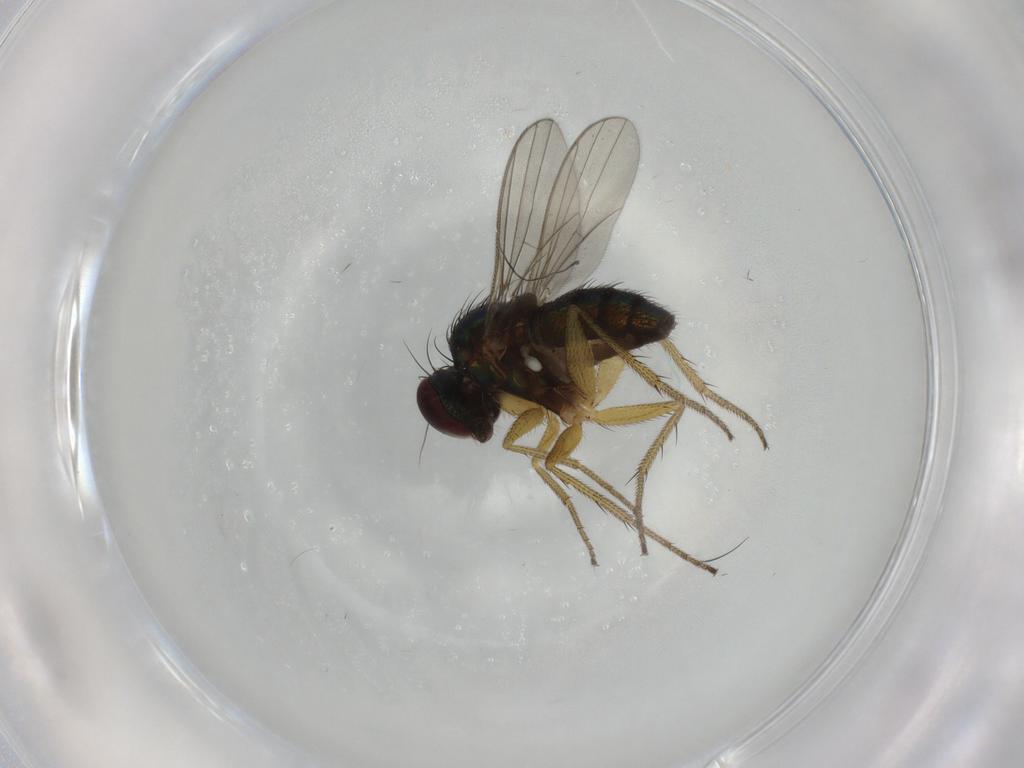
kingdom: Animalia
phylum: Arthropoda
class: Insecta
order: Diptera
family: Dolichopodidae
